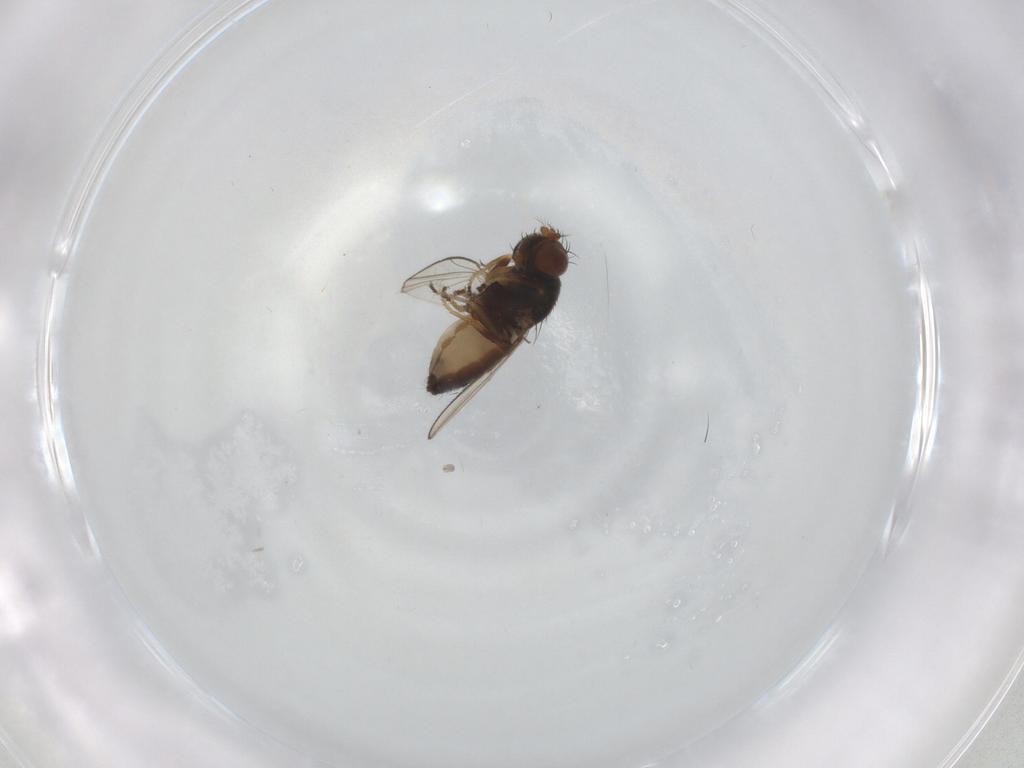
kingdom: Animalia
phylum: Arthropoda
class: Insecta
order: Diptera
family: Ephydridae
